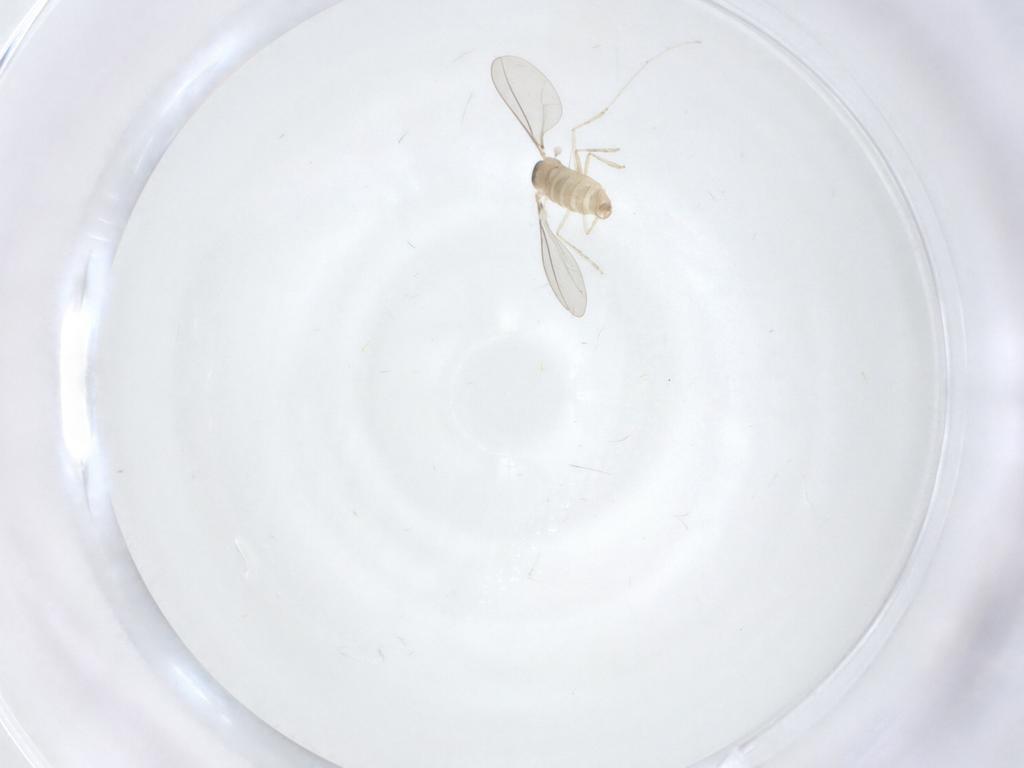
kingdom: Animalia
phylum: Arthropoda
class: Insecta
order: Diptera
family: Cecidomyiidae
